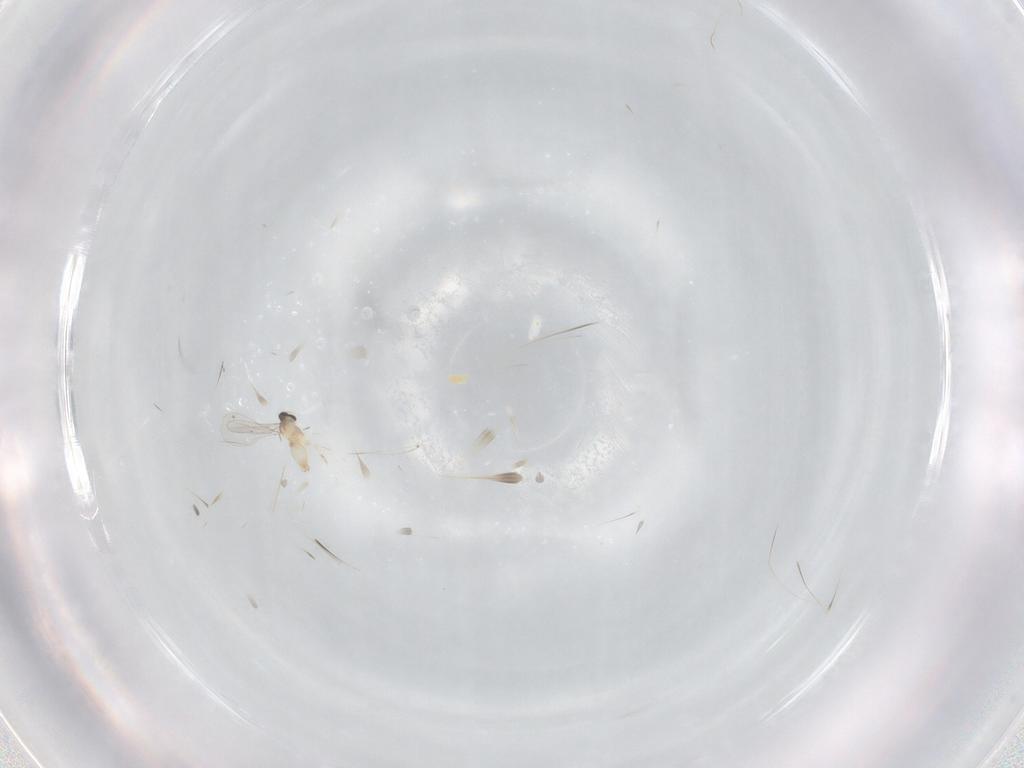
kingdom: Animalia
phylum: Arthropoda
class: Insecta
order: Diptera
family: Cecidomyiidae
